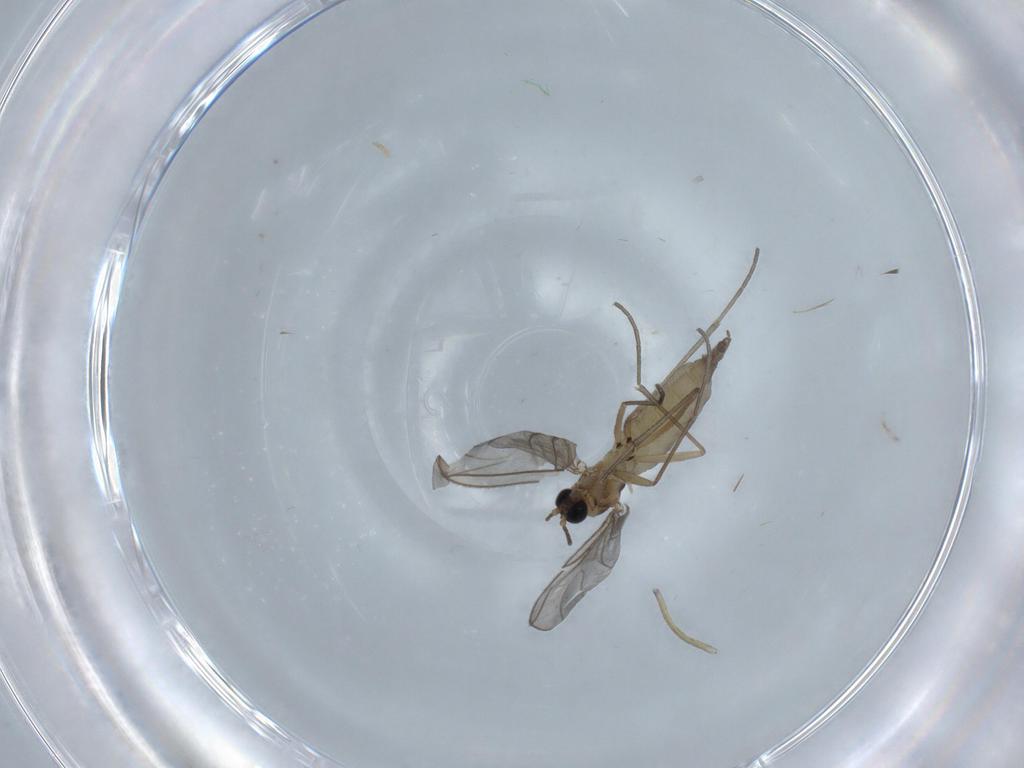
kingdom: Animalia
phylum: Arthropoda
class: Insecta
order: Diptera
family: Sciaridae
